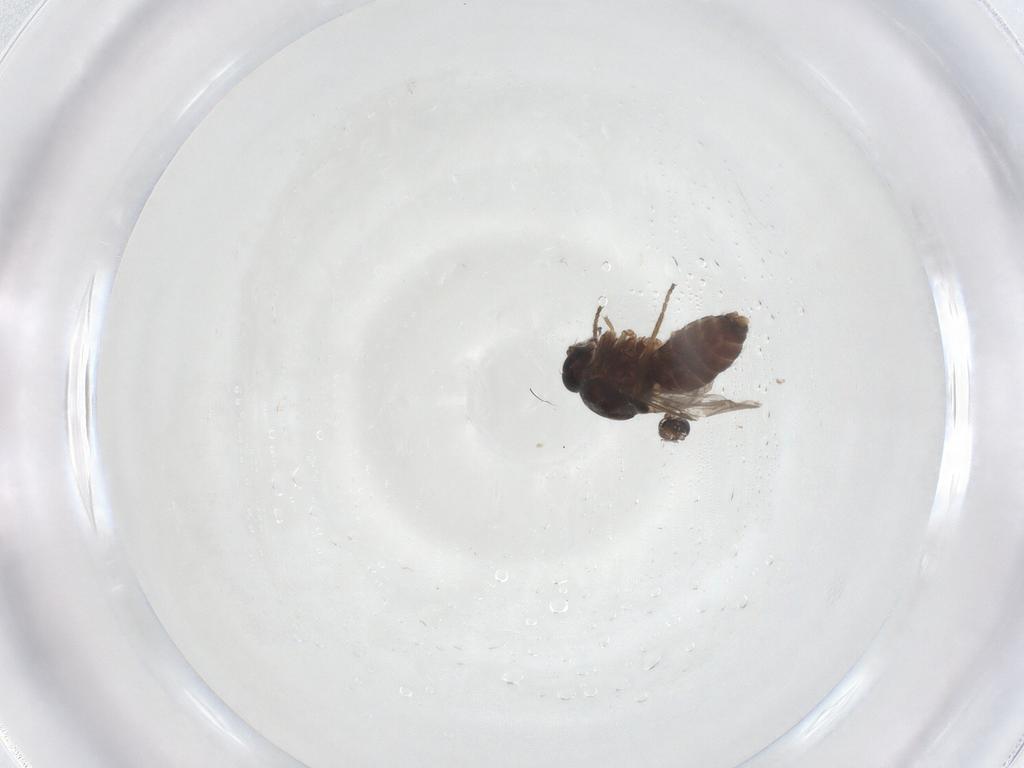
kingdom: Animalia
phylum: Arthropoda
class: Insecta
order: Diptera
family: Ceratopogonidae
